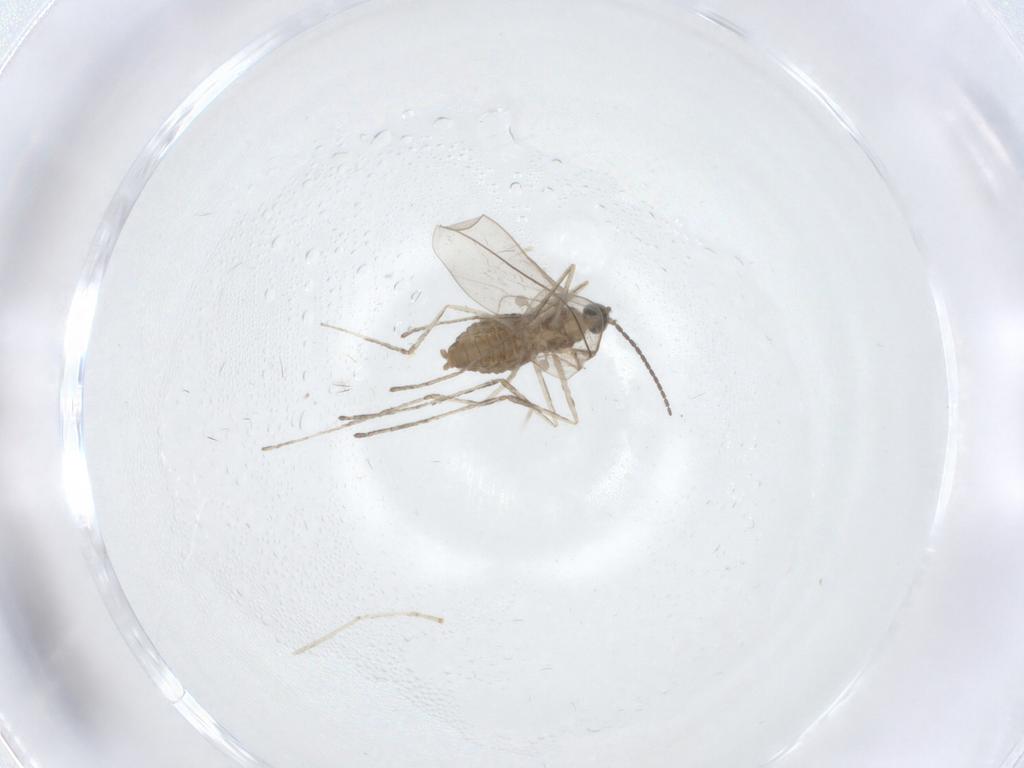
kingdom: Animalia
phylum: Arthropoda
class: Insecta
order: Diptera
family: Cecidomyiidae
